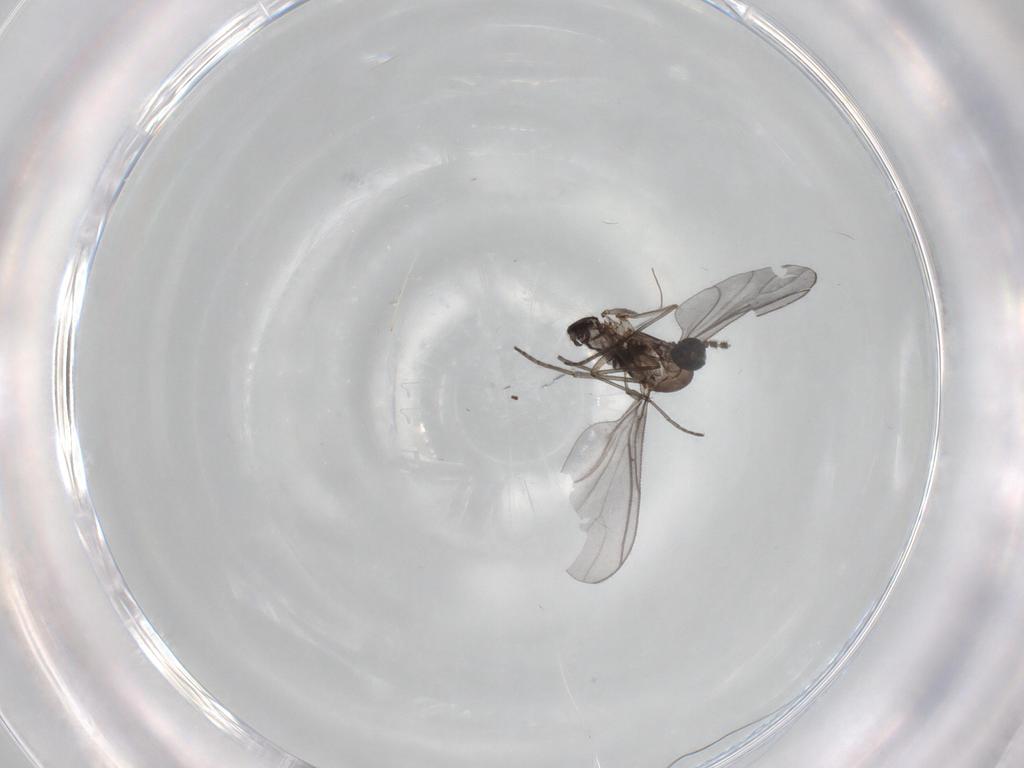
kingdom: Animalia
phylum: Arthropoda
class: Insecta
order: Diptera
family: Sciaridae
